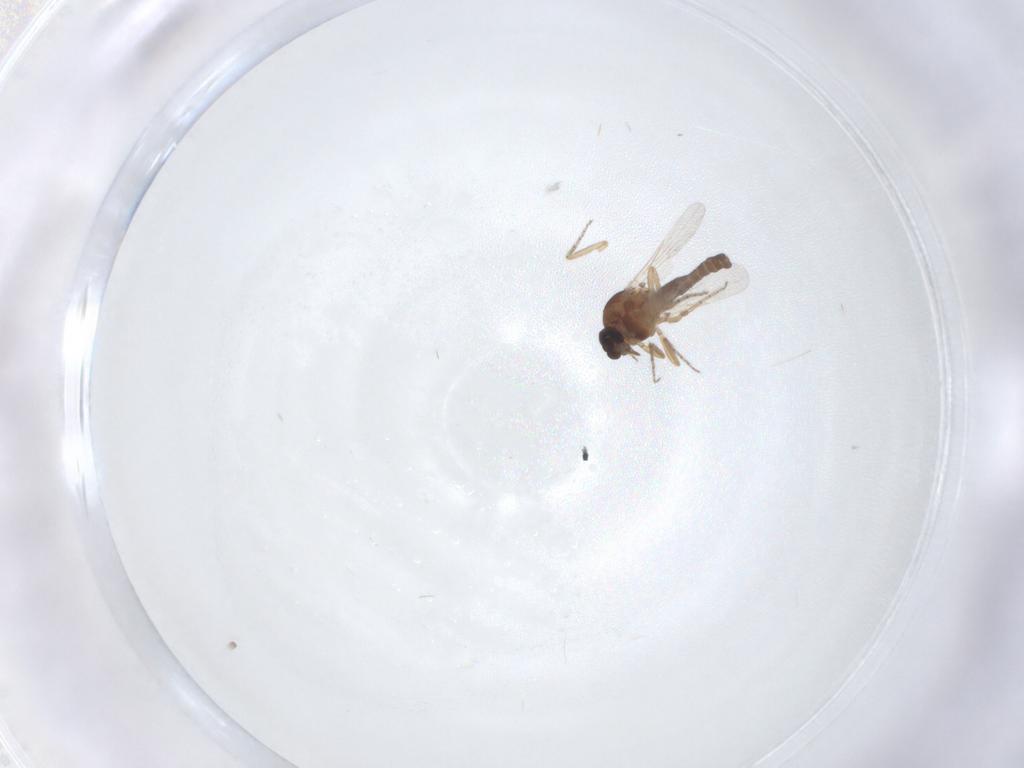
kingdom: Animalia
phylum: Arthropoda
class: Insecta
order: Diptera
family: Ceratopogonidae
